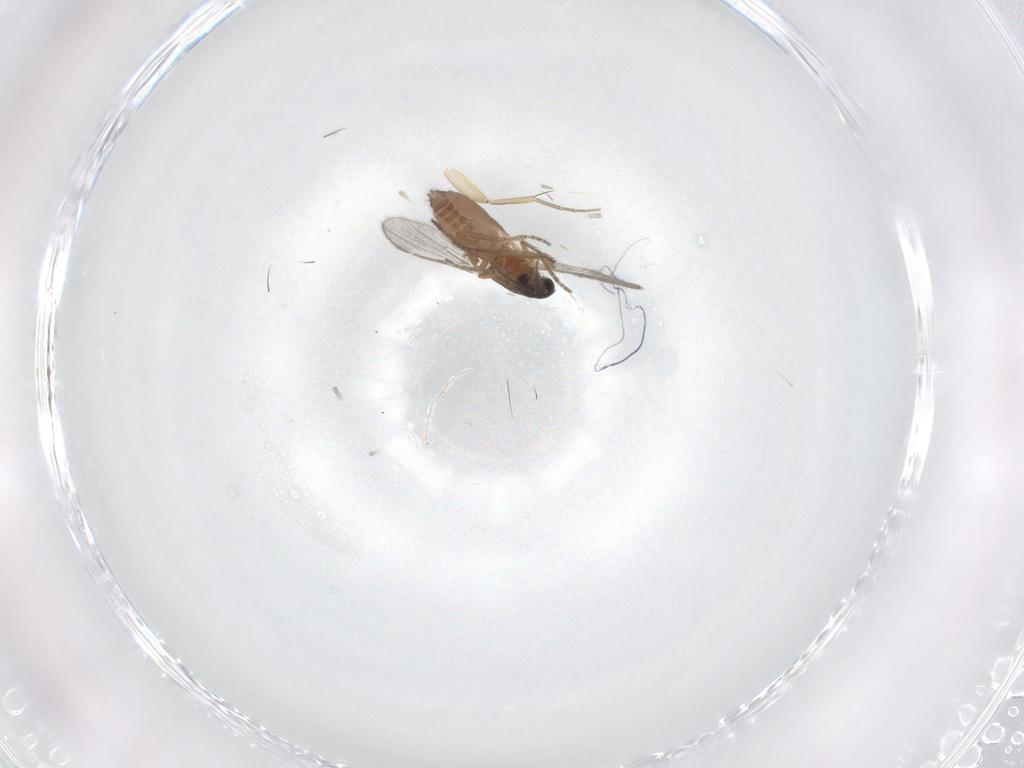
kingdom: Animalia
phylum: Arthropoda
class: Insecta
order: Diptera
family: Ceratopogonidae
